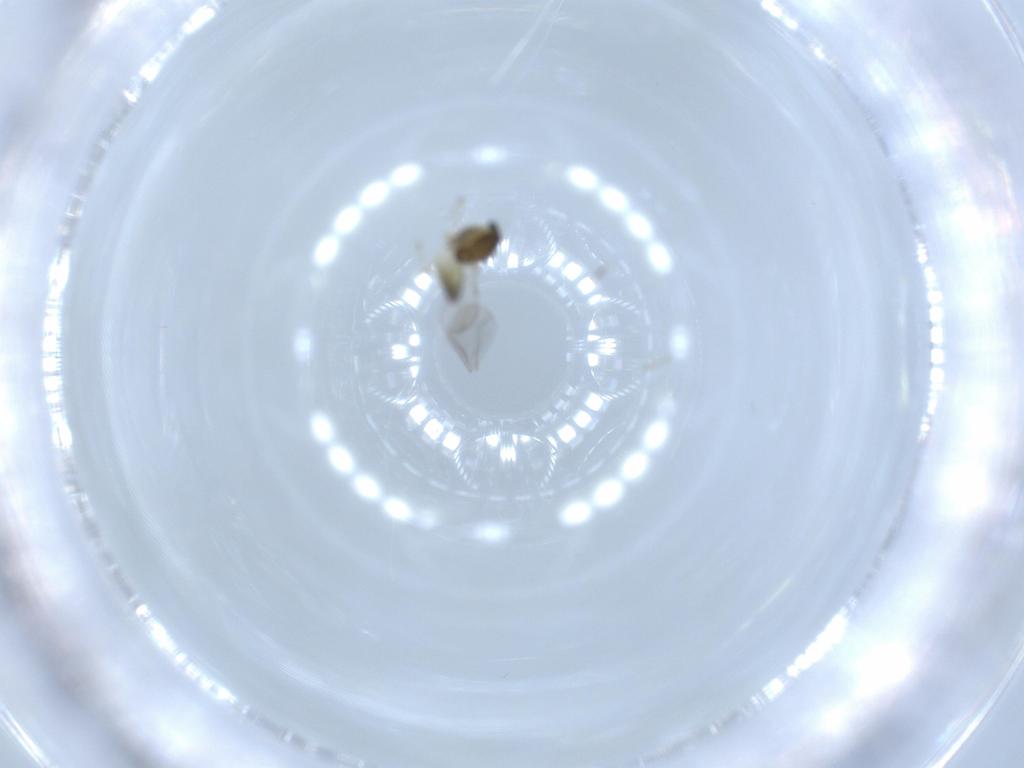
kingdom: Animalia
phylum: Arthropoda
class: Insecta
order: Diptera
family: Chironomidae
